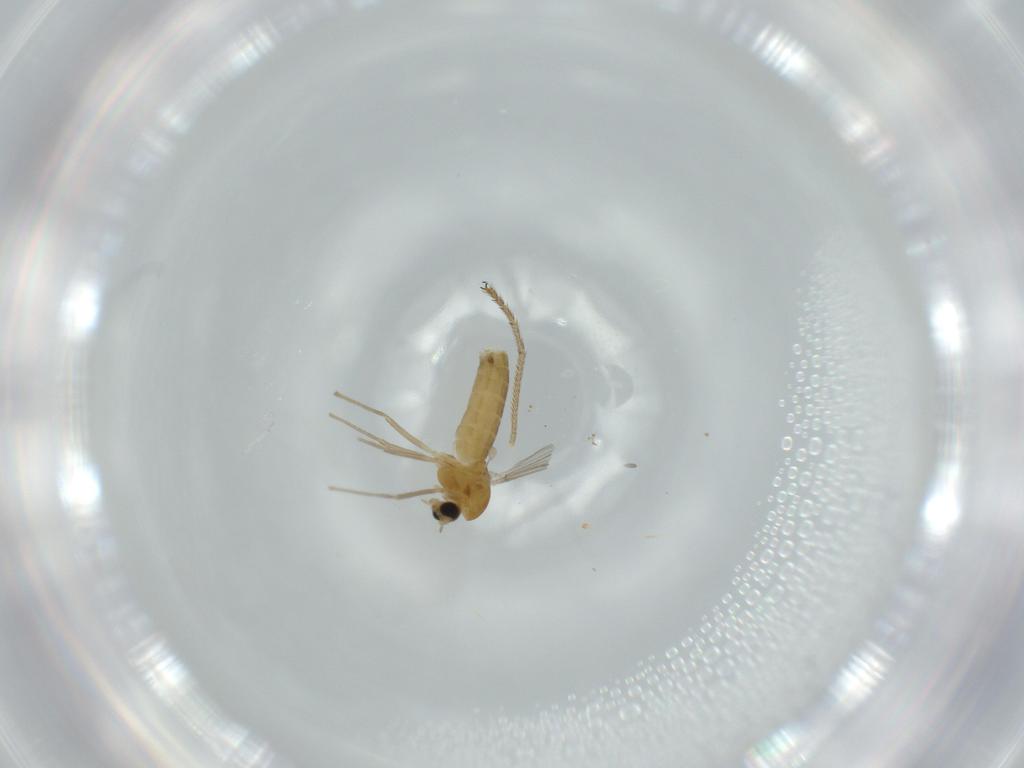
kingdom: Animalia
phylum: Arthropoda
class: Insecta
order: Diptera
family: Chironomidae
